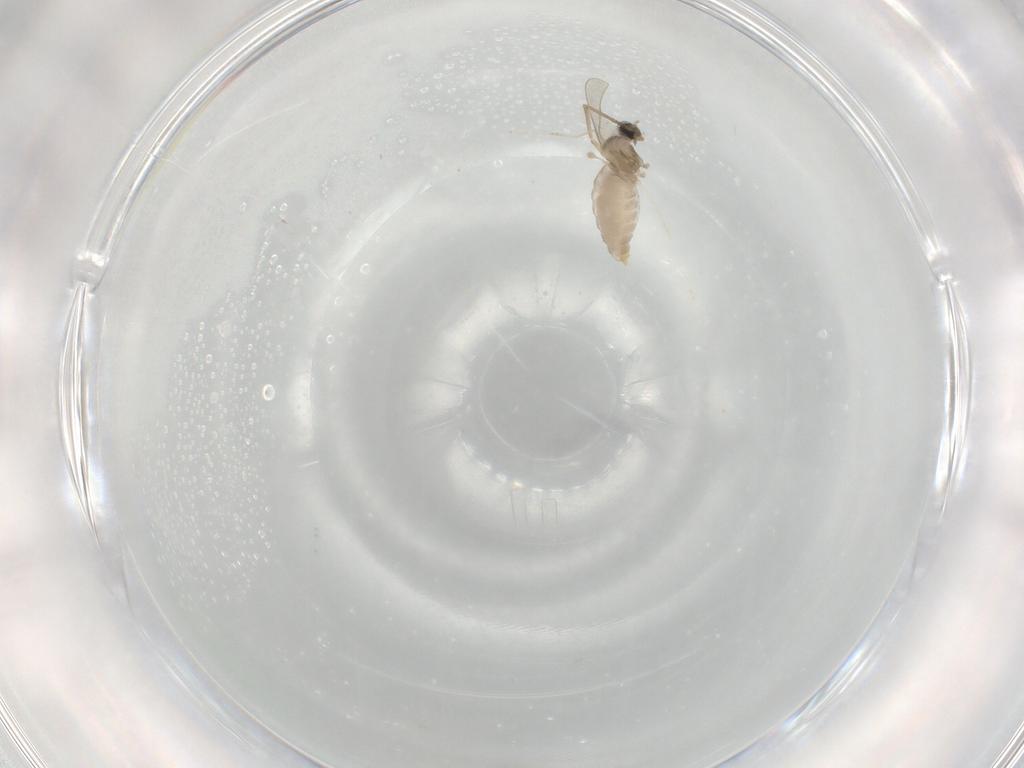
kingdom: Animalia
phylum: Arthropoda
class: Insecta
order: Diptera
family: Cecidomyiidae
